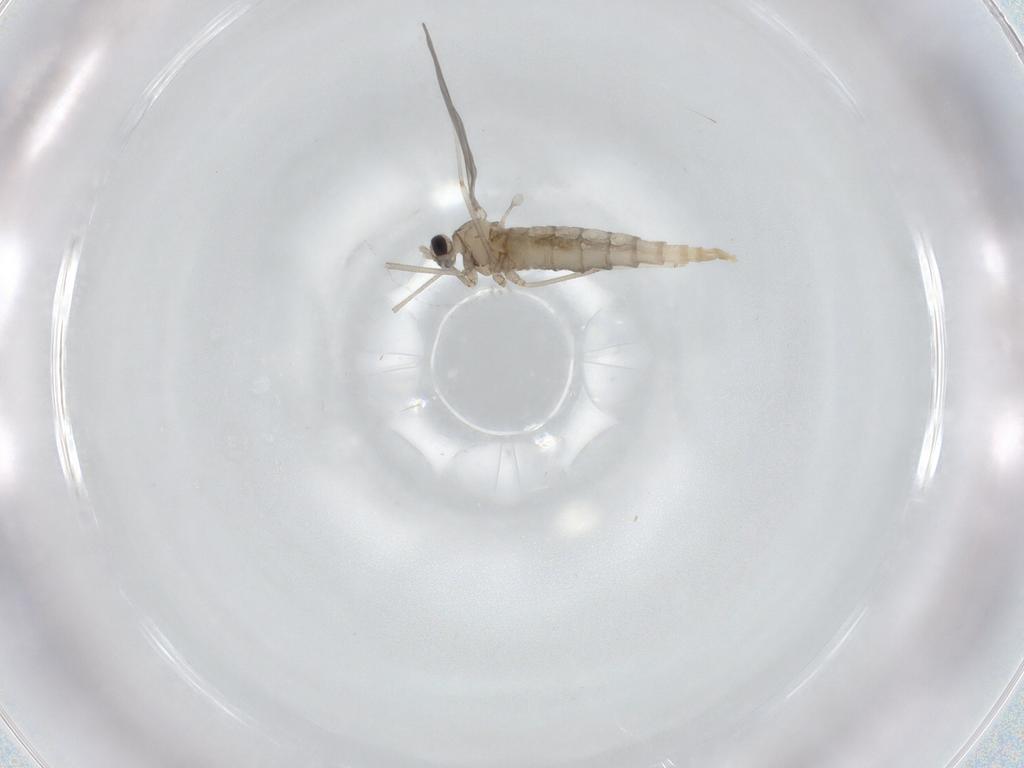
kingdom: Animalia
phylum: Arthropoda
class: Insecta
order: Diptera
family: Cecidomyiidae
